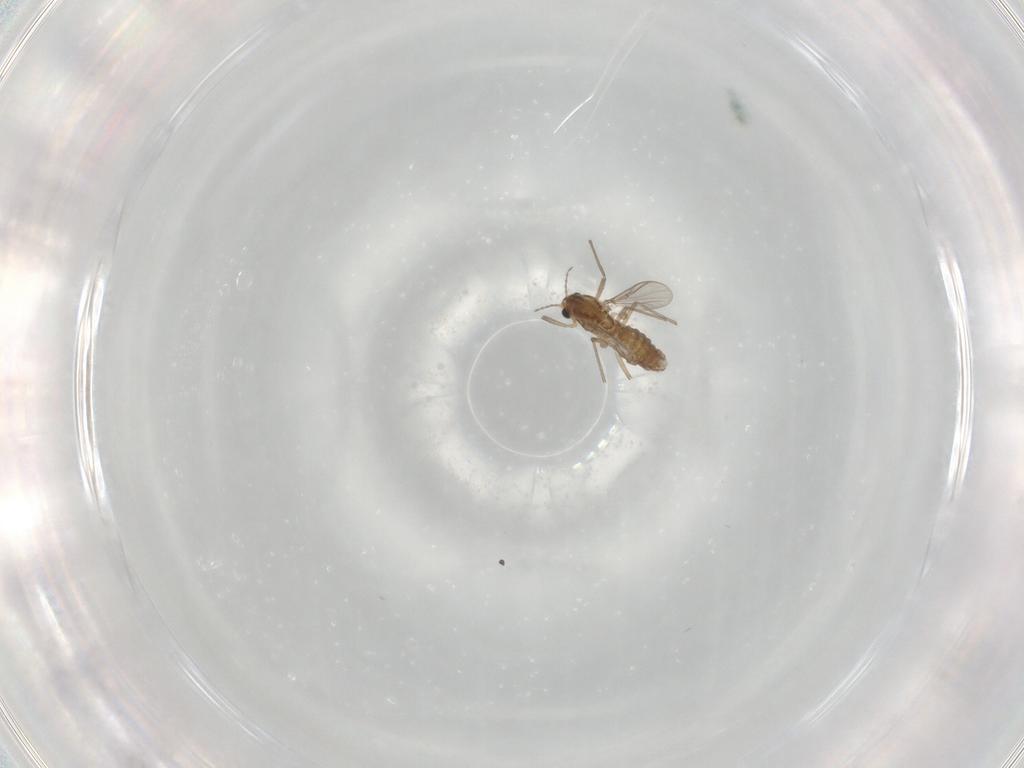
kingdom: Animalia
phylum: Arthropoda
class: Insecta
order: Diptera
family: Chironomidae
